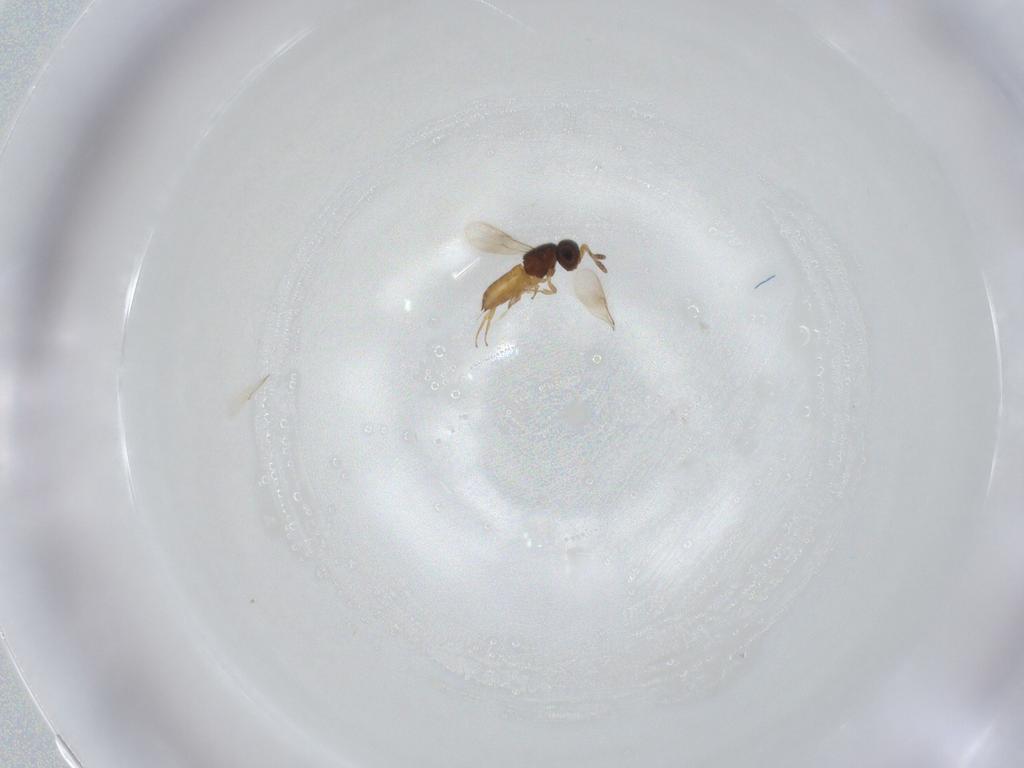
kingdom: Animalia
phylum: Arthropoda
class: Insecta
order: Hymenoptera
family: Scelionidae
